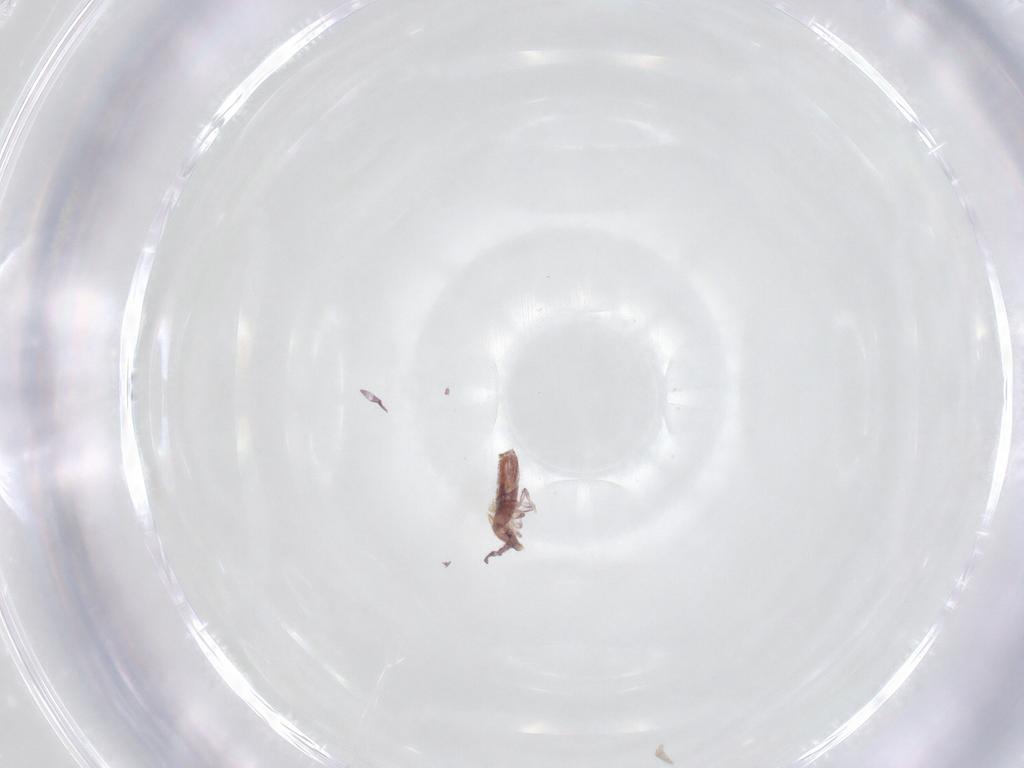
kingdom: Animalia
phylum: Arthropoda
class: Collembola
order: Entomobryomorpha
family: Entomobryidae
